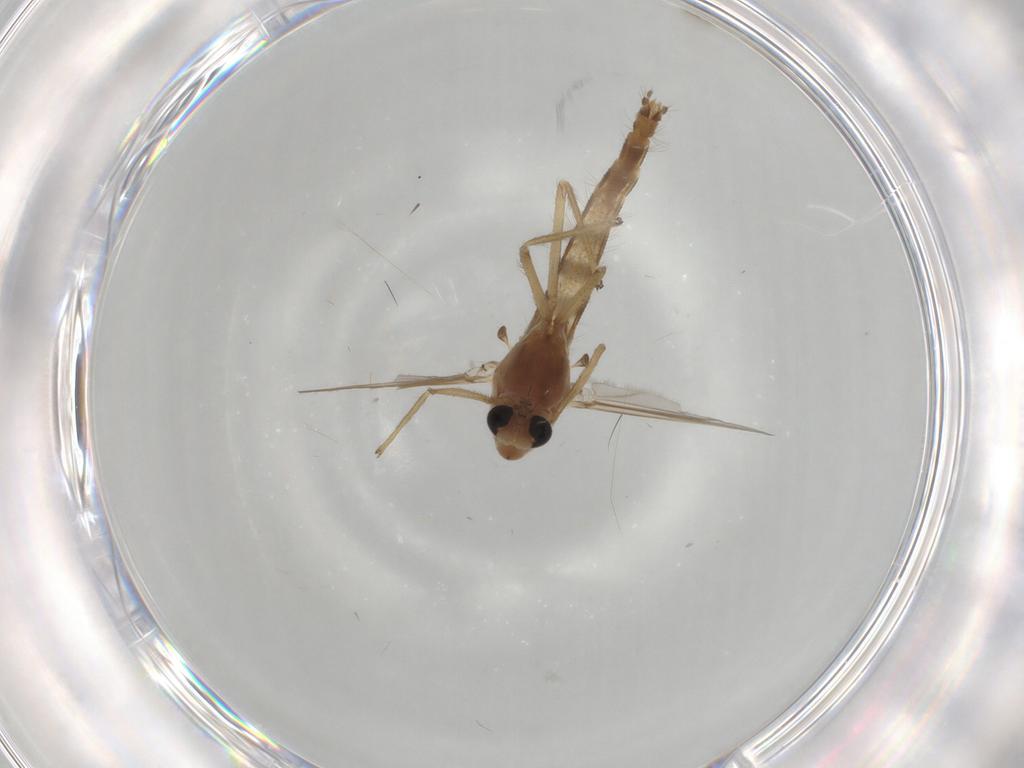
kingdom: Animalia
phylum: Arthropoda
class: Insecta
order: Diptera
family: Chironomidae
